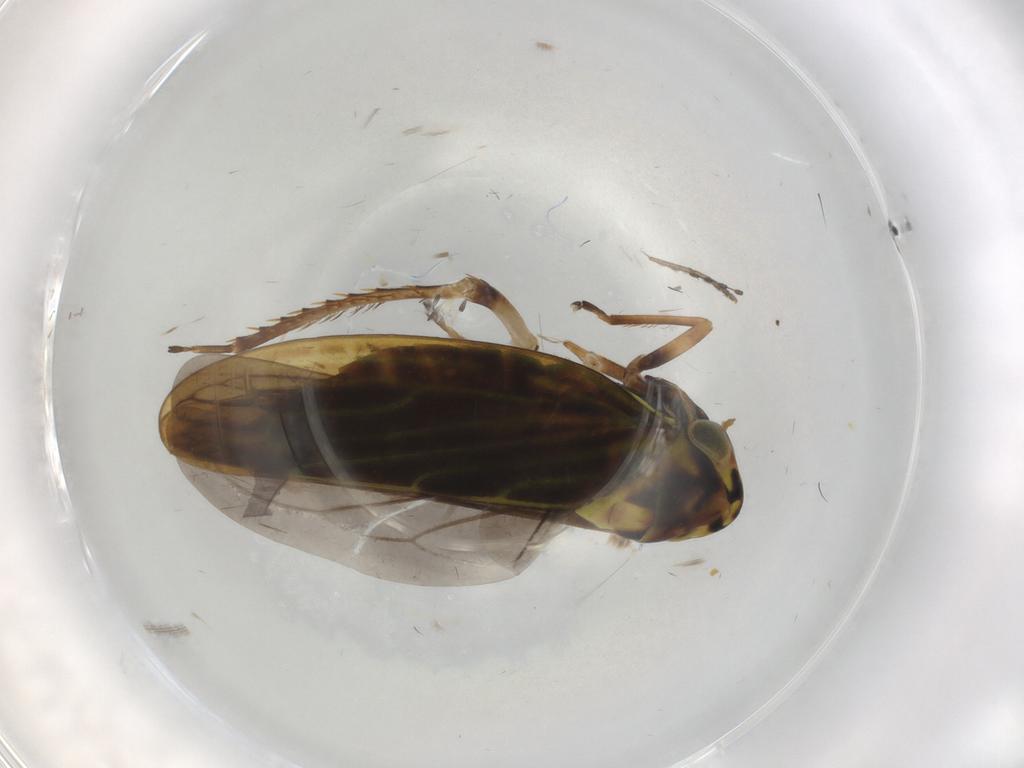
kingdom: Animalia
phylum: Arthropoda
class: Insecta
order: Hemiptera
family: Cicadellidae
